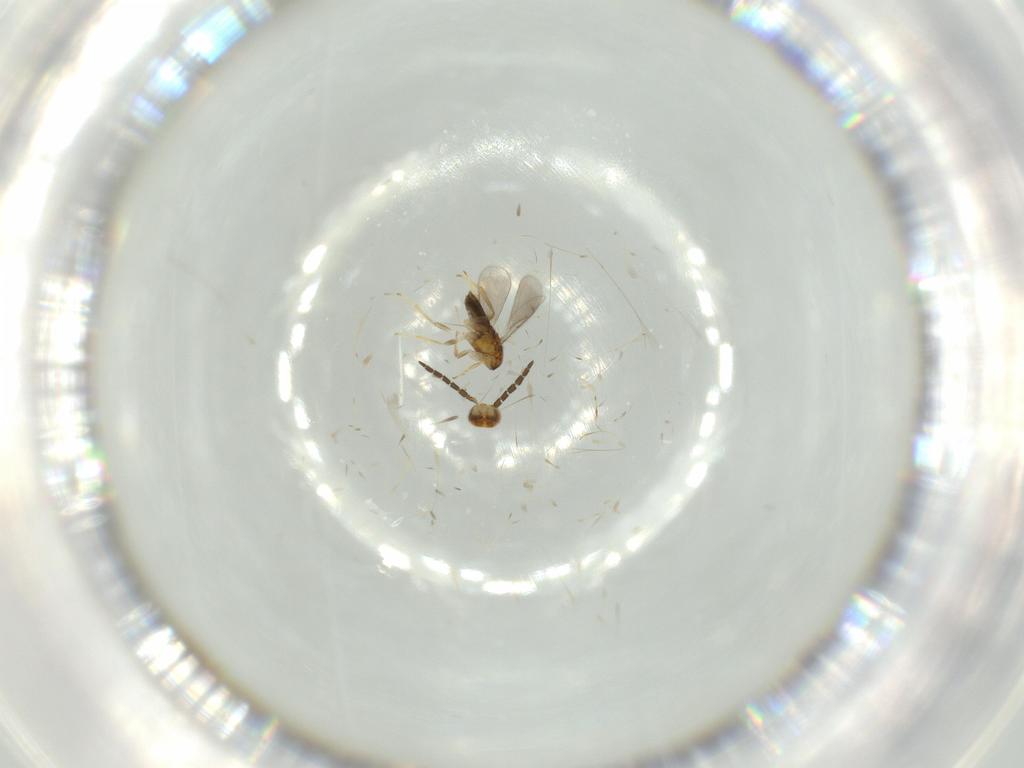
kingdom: Animalia
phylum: Arthropoda
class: Insecta
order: Hymenoptera
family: Aphelinidae
